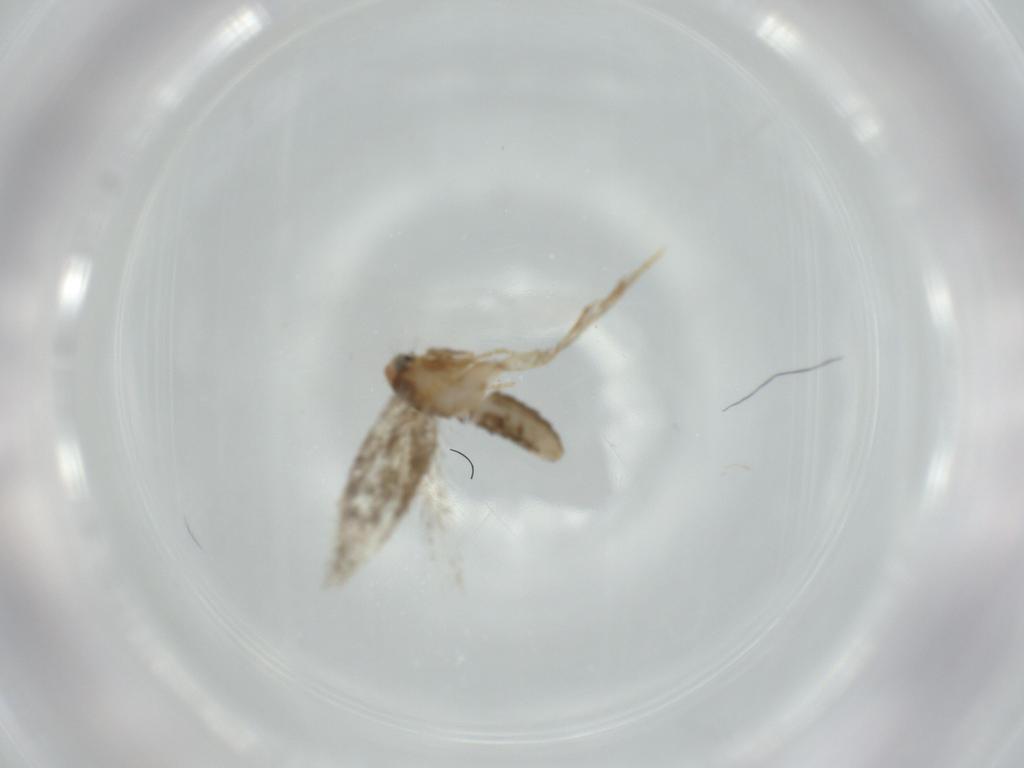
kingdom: Animalia
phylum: Arthropoda
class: Insecta
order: Lepidoptera
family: Nepticulidae
